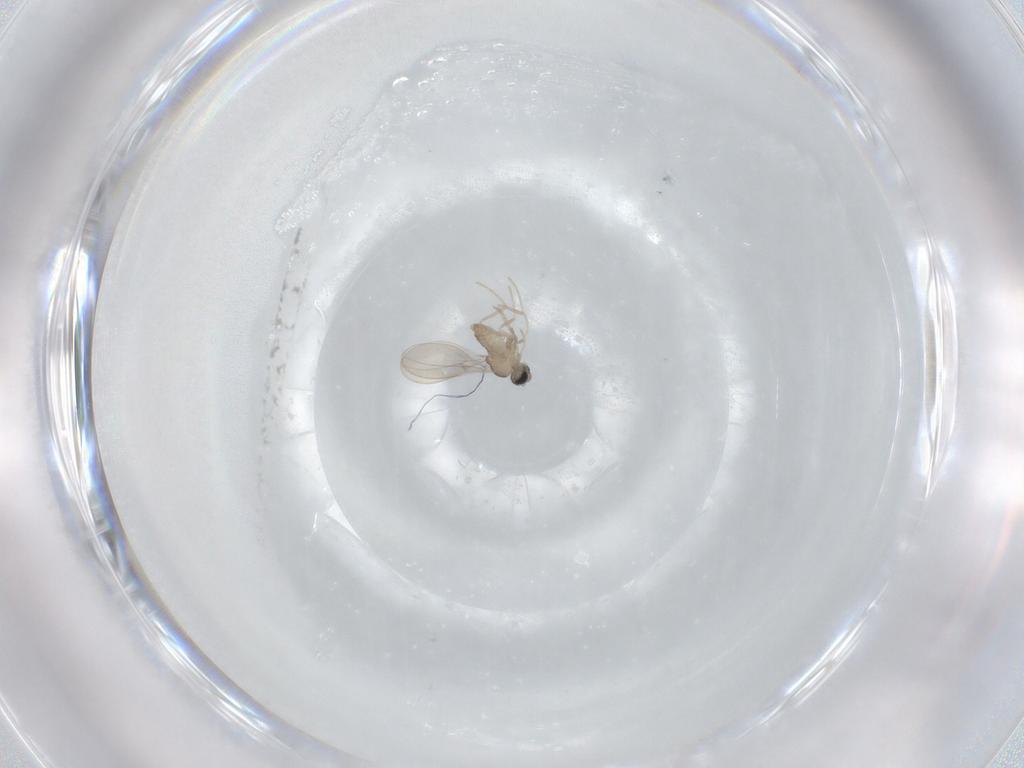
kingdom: Animalia
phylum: Arthropoda
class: Insecta
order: Diptera
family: Cecidomyiidae
